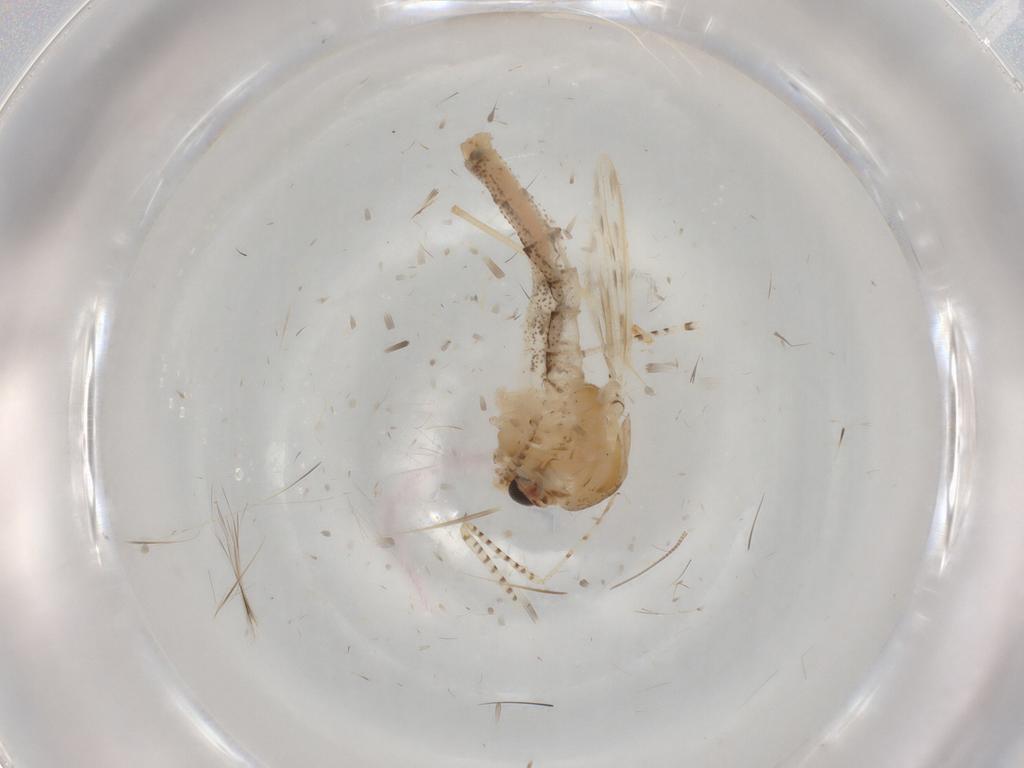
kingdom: Animalia
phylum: Arthropoda
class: Insecta
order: Diptera
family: Chaoboridae
